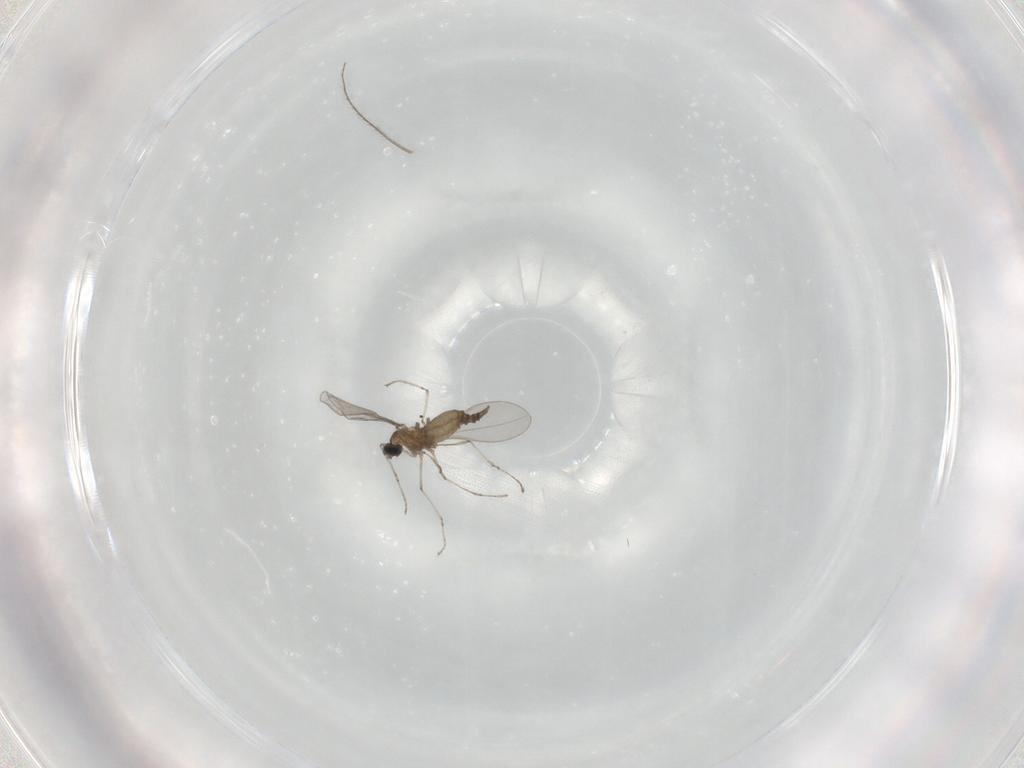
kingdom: Animalia
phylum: Arthropoda
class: Insecta
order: Diptera
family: Cecidomyiidae
